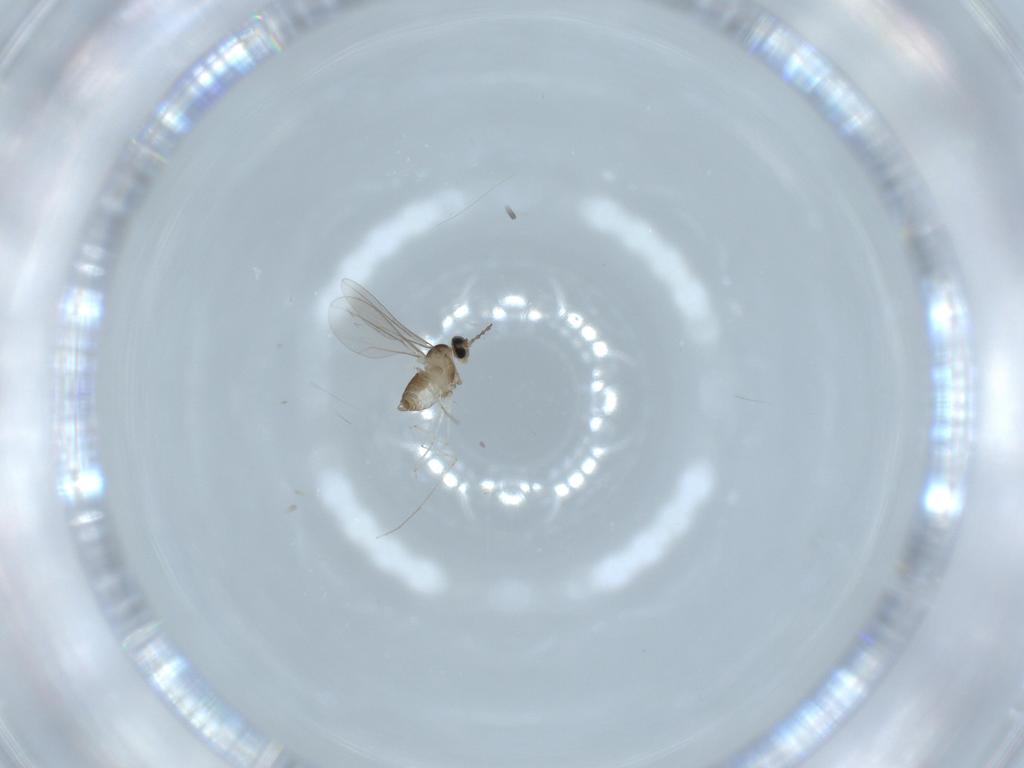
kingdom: Animalia
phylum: Arthropoda
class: Insecta
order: Diptera
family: Cecidomyiidae
